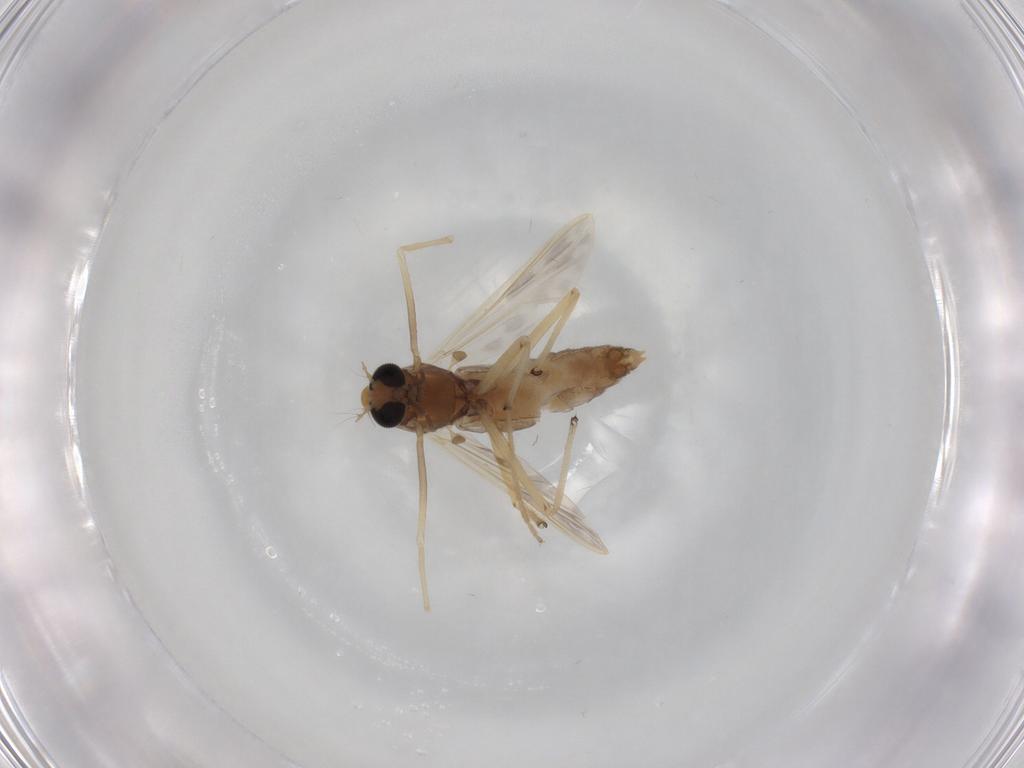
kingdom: Animalia
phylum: Arthropoda
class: Insecta
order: Diptera
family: Chironomidae
